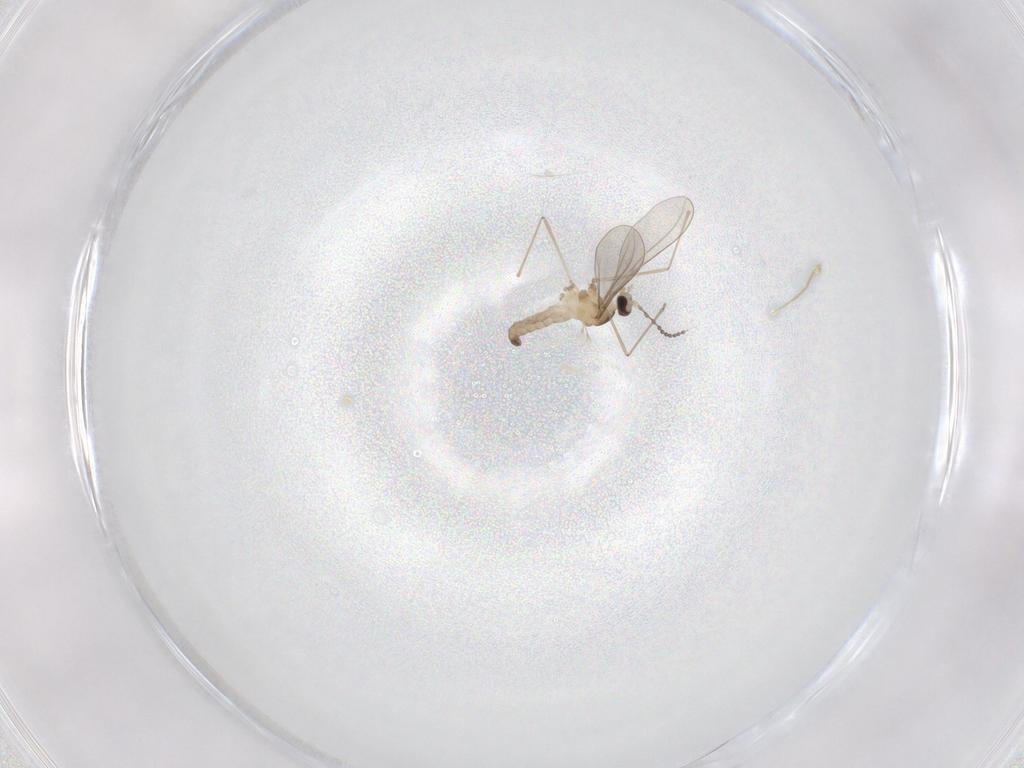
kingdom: Animalia
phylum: Arthropoda
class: Insecta
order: Diptera
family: Cecidomyiidae
